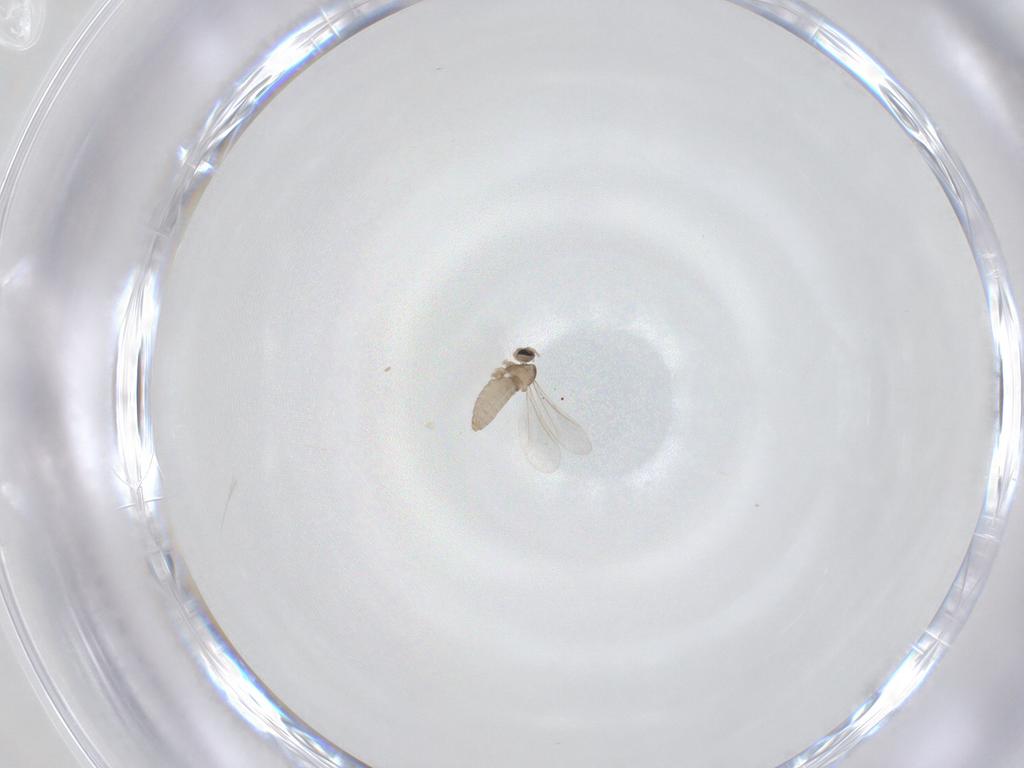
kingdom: Animalia
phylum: Arthropoda
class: Insecta
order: Diptera
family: Cecidomyiidae
